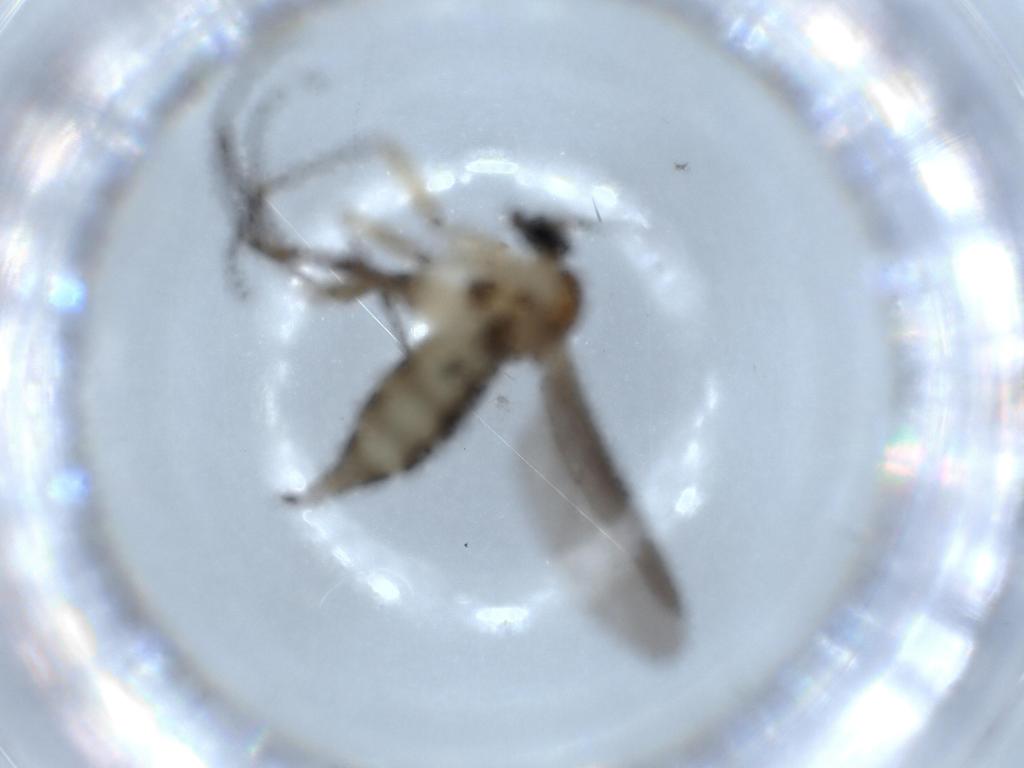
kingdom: Animalia
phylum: Arthropoda
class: Insecta
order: Diptera
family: Sciaridae
